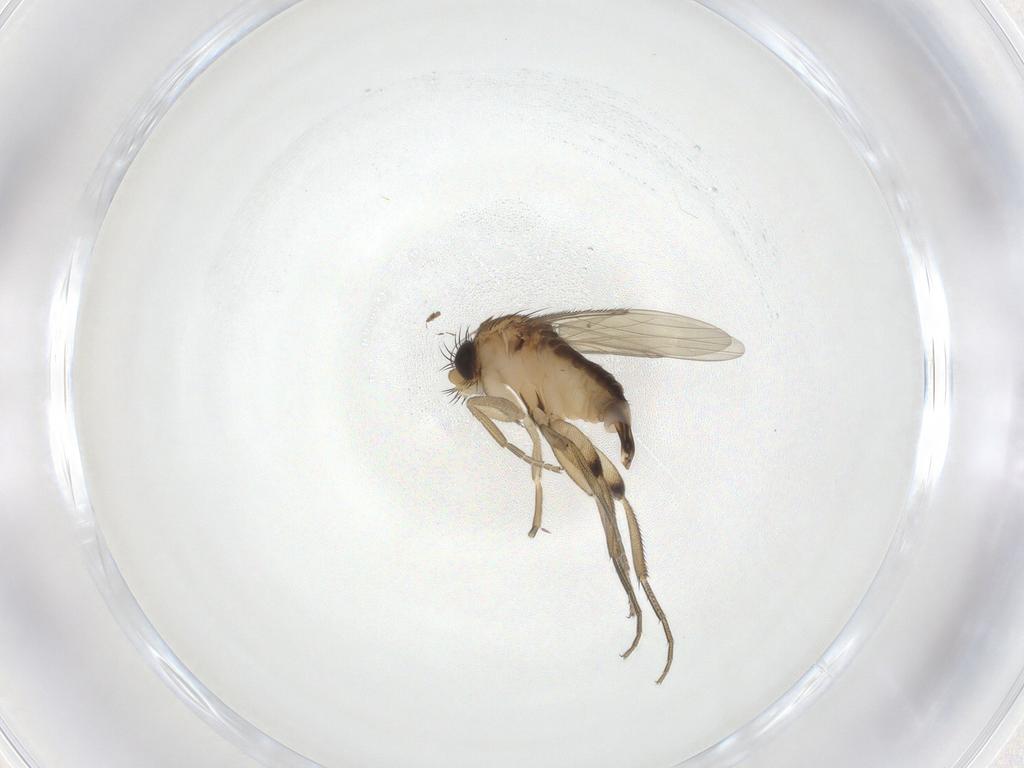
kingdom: Animalia
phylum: Arthropoda
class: Insecta
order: Diptera
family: Phoridae
